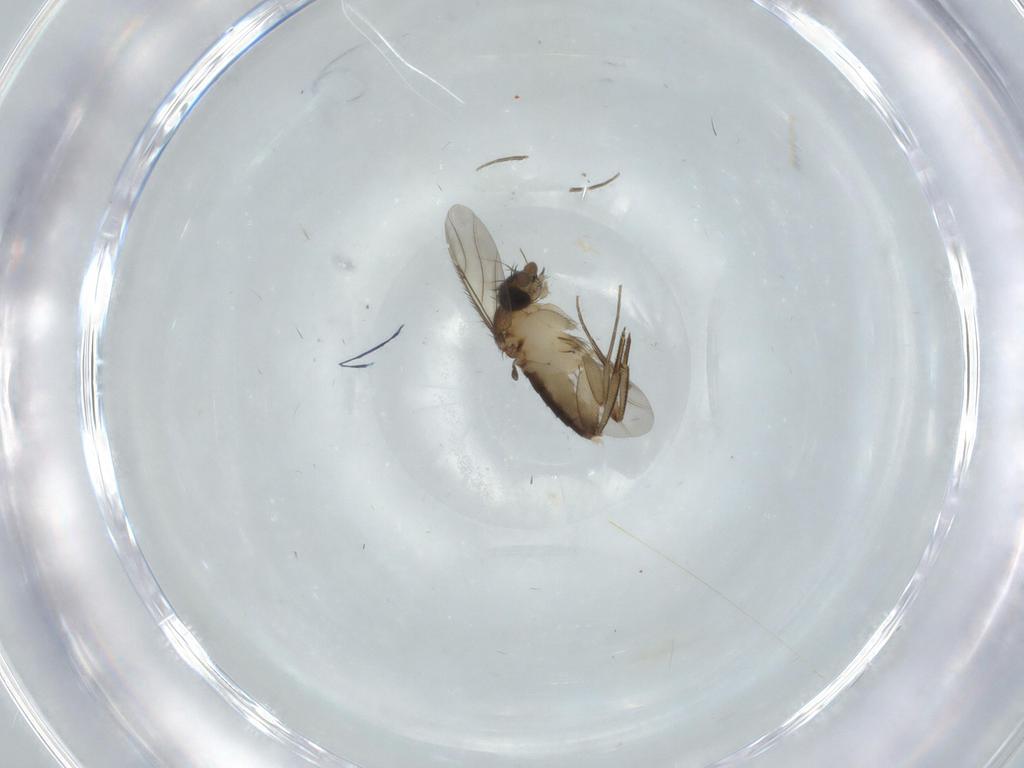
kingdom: Animalia
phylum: Arthropoda
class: Insecta
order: Diptera
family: Phoridae
